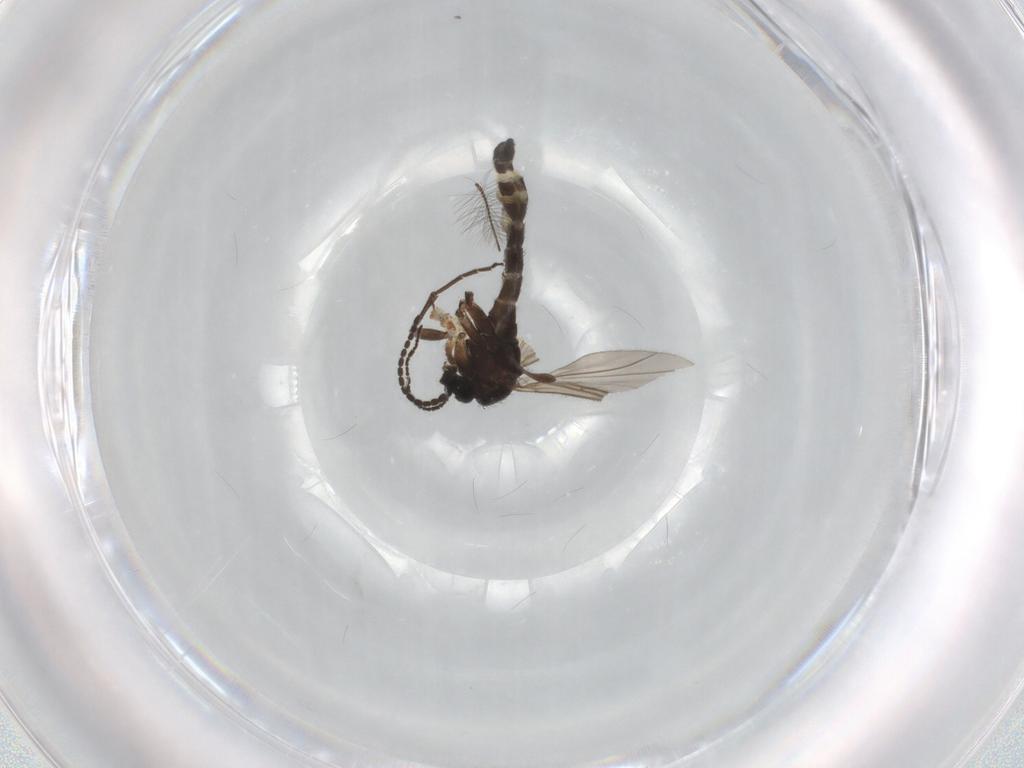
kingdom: Animalia
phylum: Arthropoda
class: Insecta
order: Diptera
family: Sciaridae
